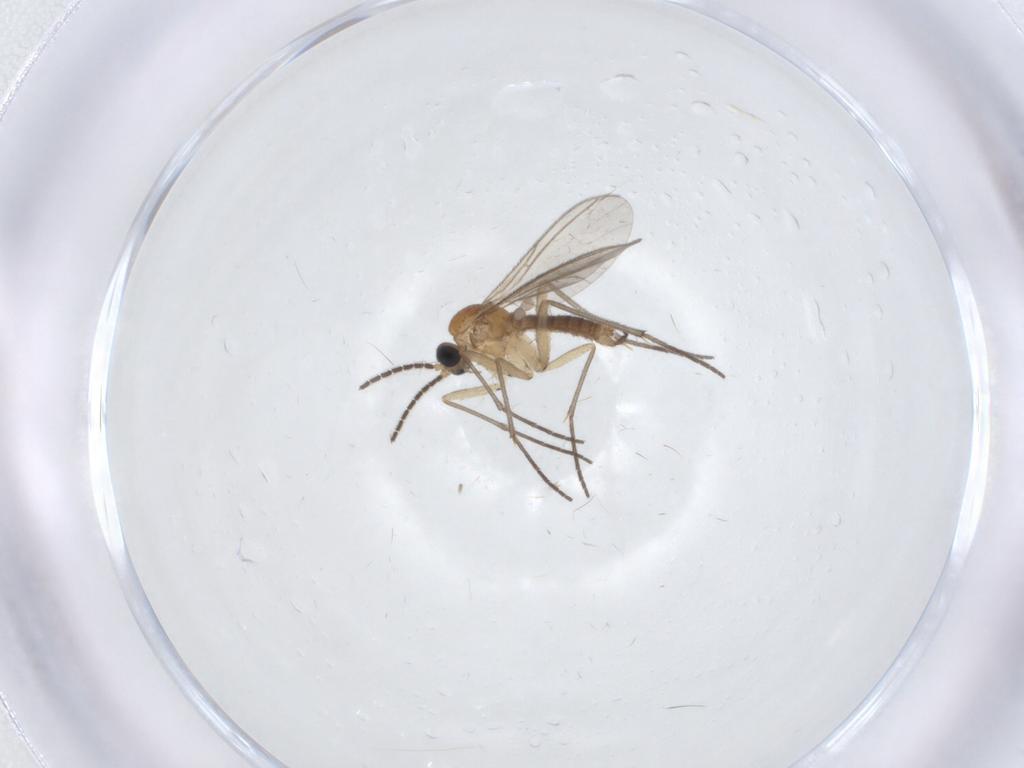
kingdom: Animalia
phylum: Arthropoda
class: Insecta
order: Diptera
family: Sciaridae
